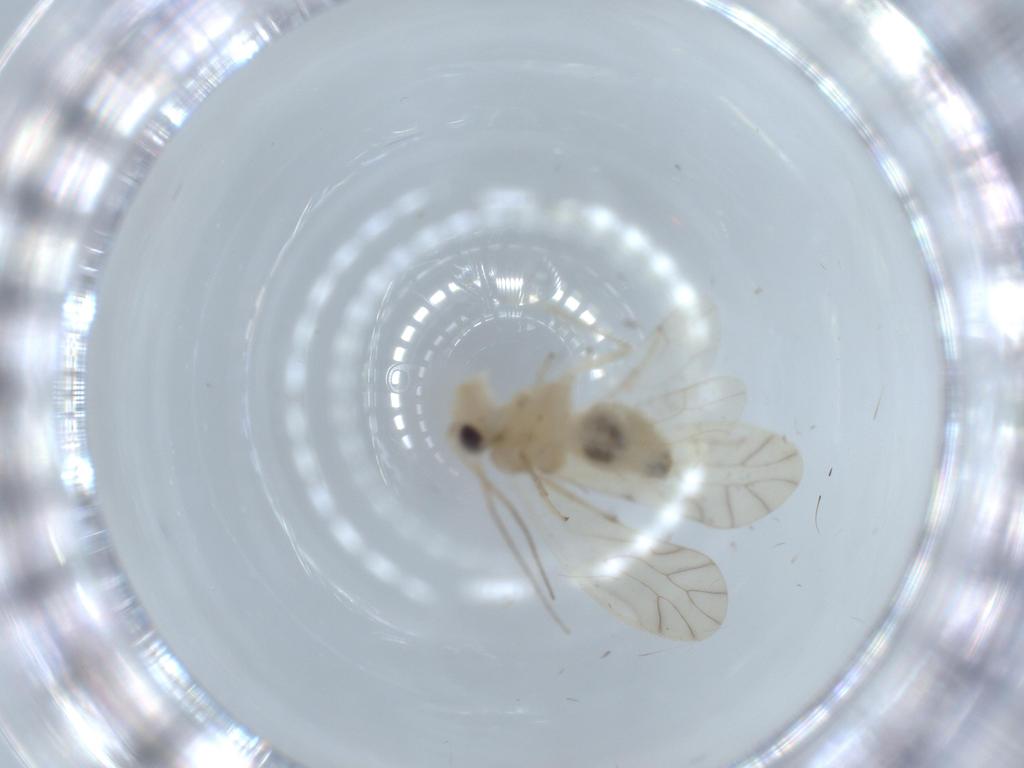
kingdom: Animalia
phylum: Arthropoda
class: Insecta
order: Psocodea
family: Caeciliusidae
